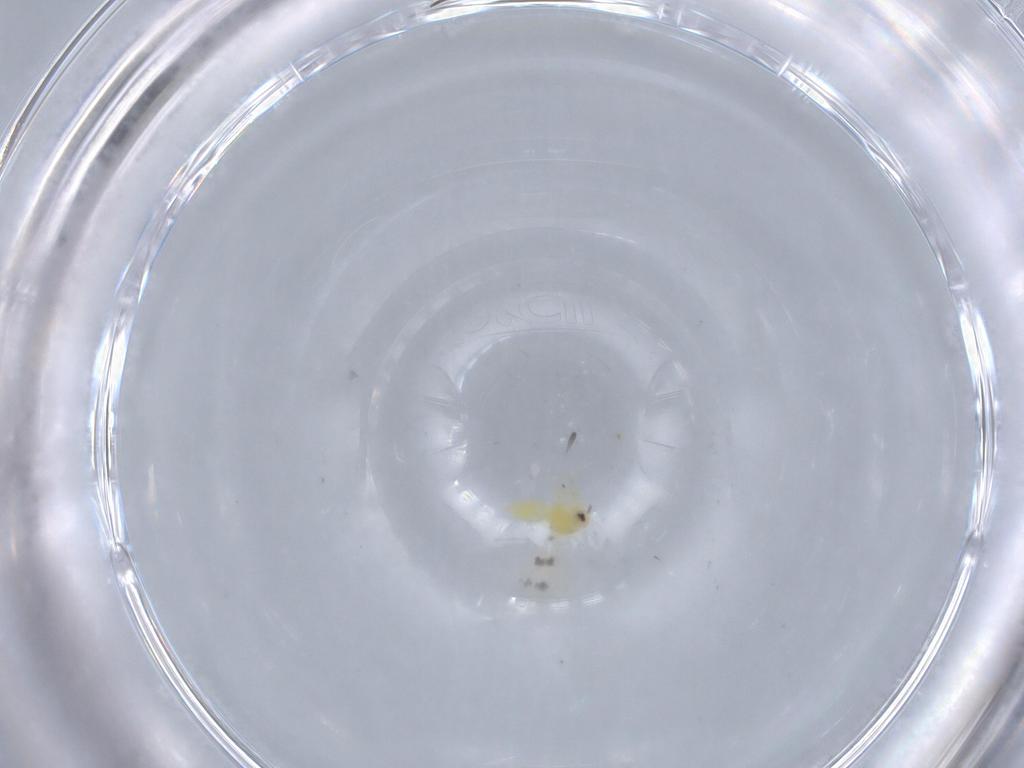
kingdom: Animalia
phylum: Arthropoda
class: Insecta
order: Hemiptera
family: Aleyrodidae
